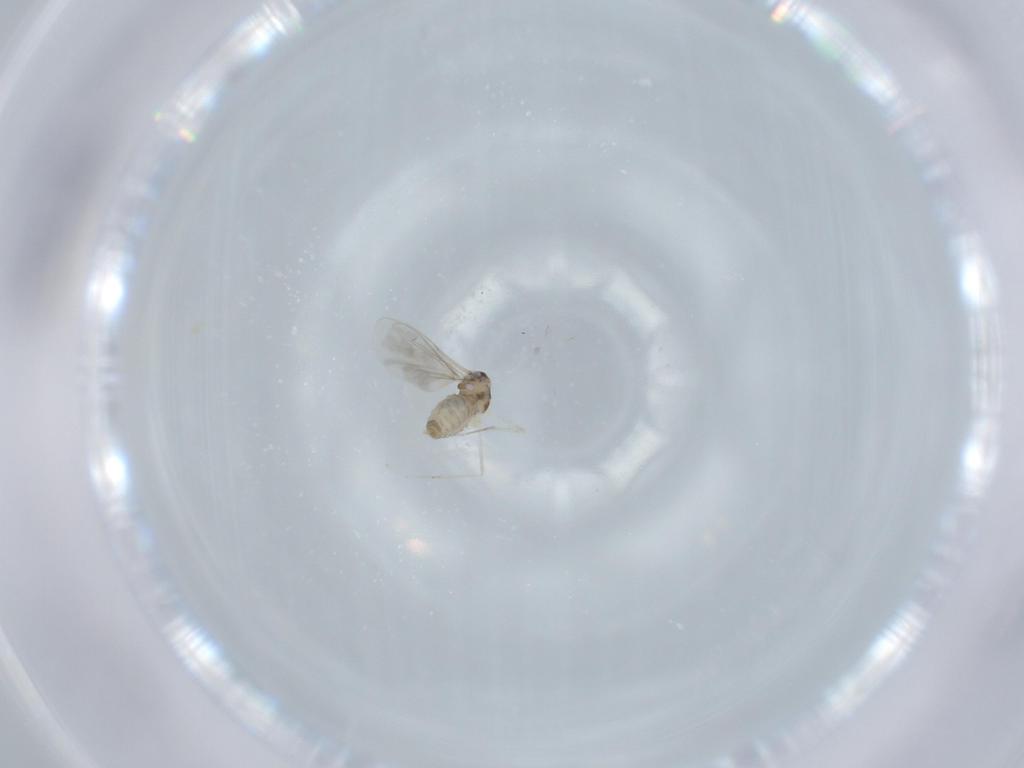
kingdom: Animalia
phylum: Arthropoda
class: Insecta
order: Diptera
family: Cecidomyiidae
